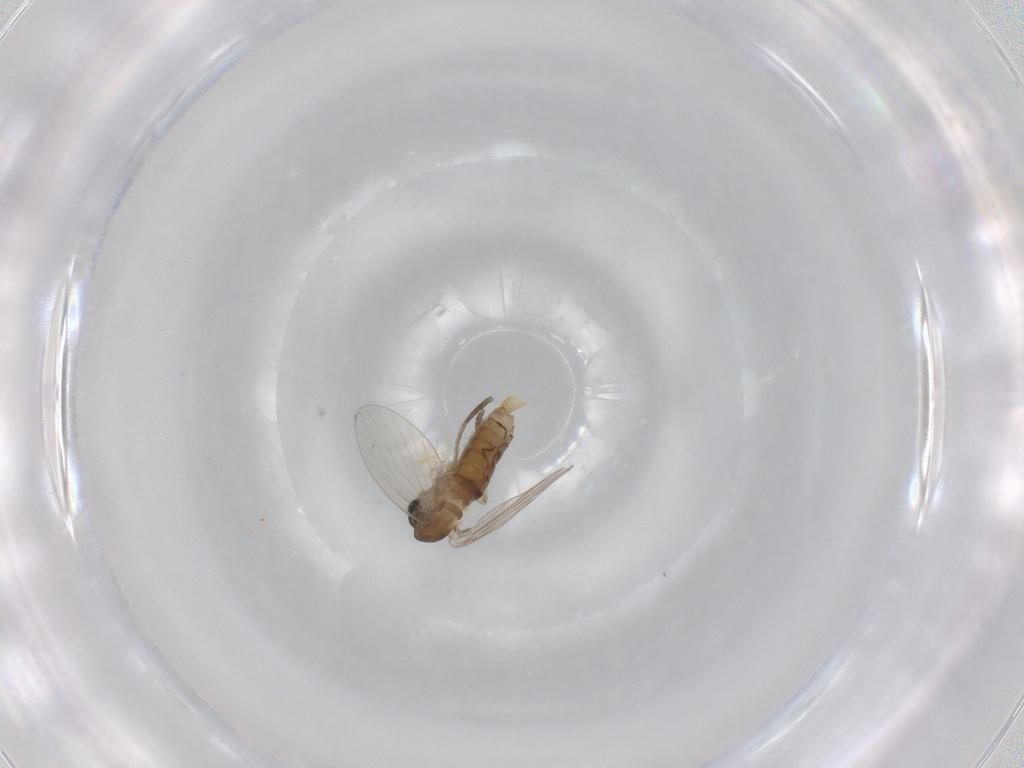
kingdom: Animalia
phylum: Arthropoda
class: Insecta
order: Diptera
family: Psychodidae
